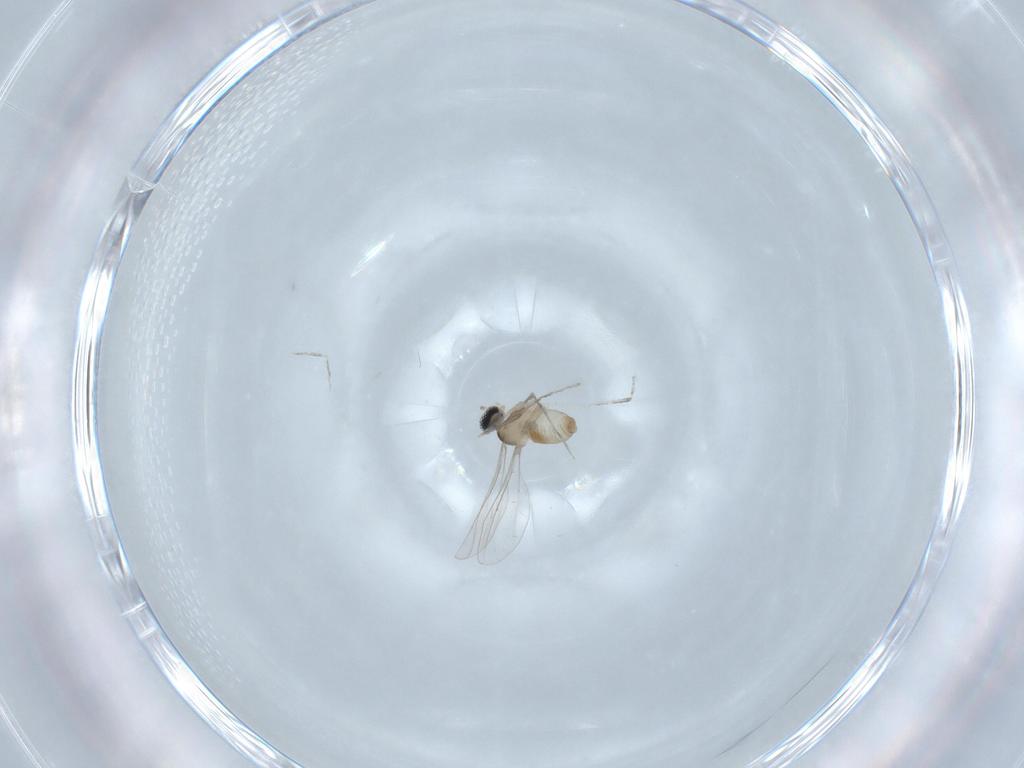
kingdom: Animalia
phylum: Arthropoda
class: Insecta
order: Diptera
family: Cecidomyiidae
